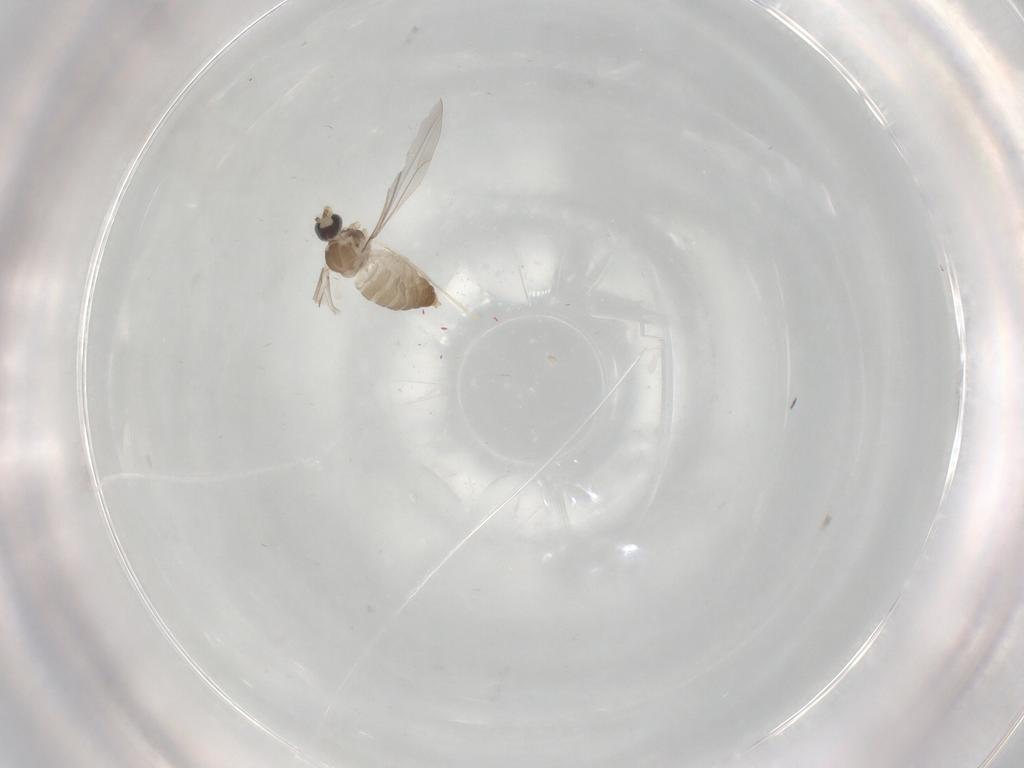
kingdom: Animalia
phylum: Arthropoda
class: Insecta
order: Diptera
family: Cecidomyiidae
